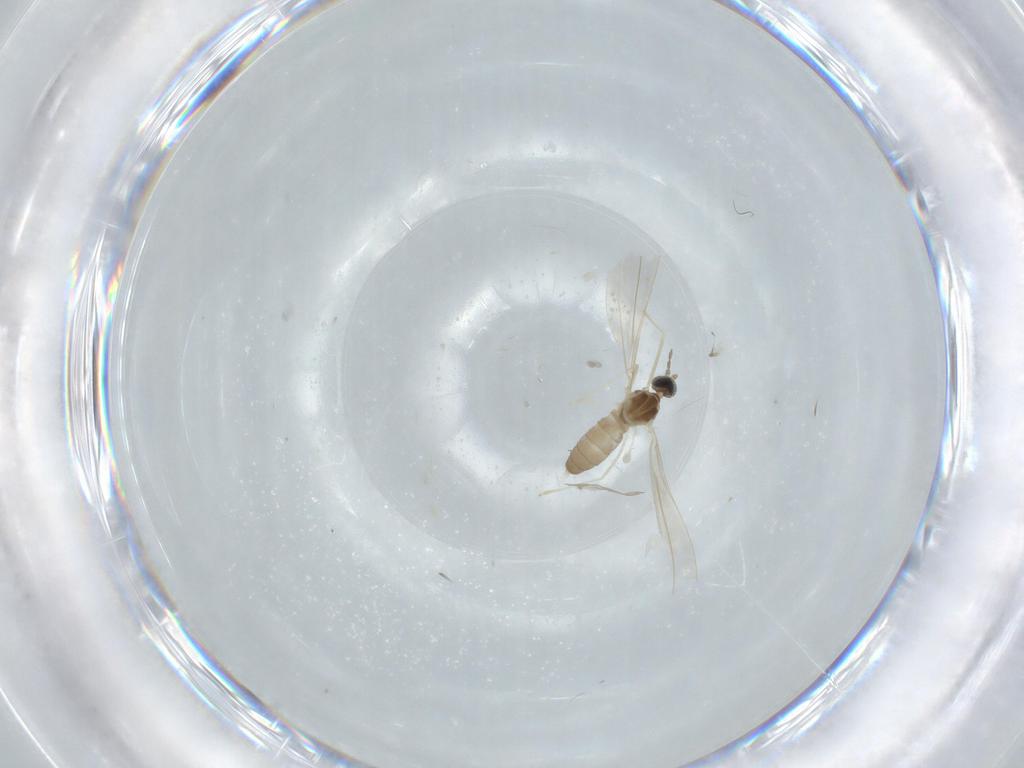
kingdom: Animalia
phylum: Arthropoda
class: Insecta
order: Diptera
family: Cecidomyiidae
